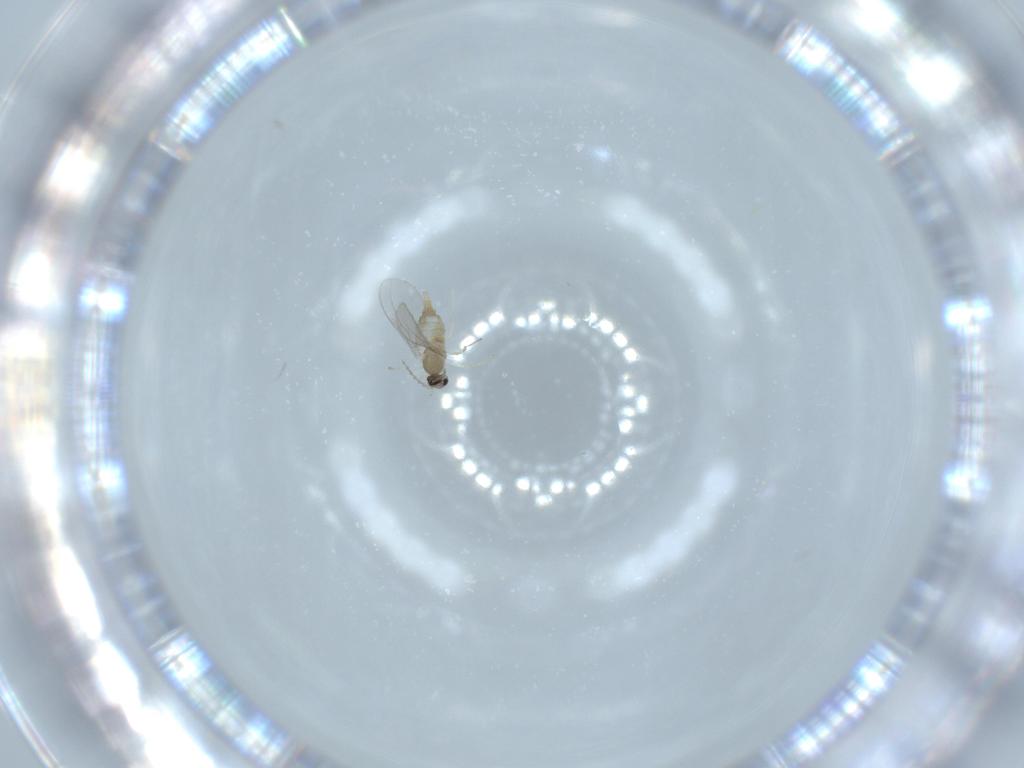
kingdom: Animalia
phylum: Arthropoda
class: Insecta
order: Diptera
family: Cecidomyiidae
